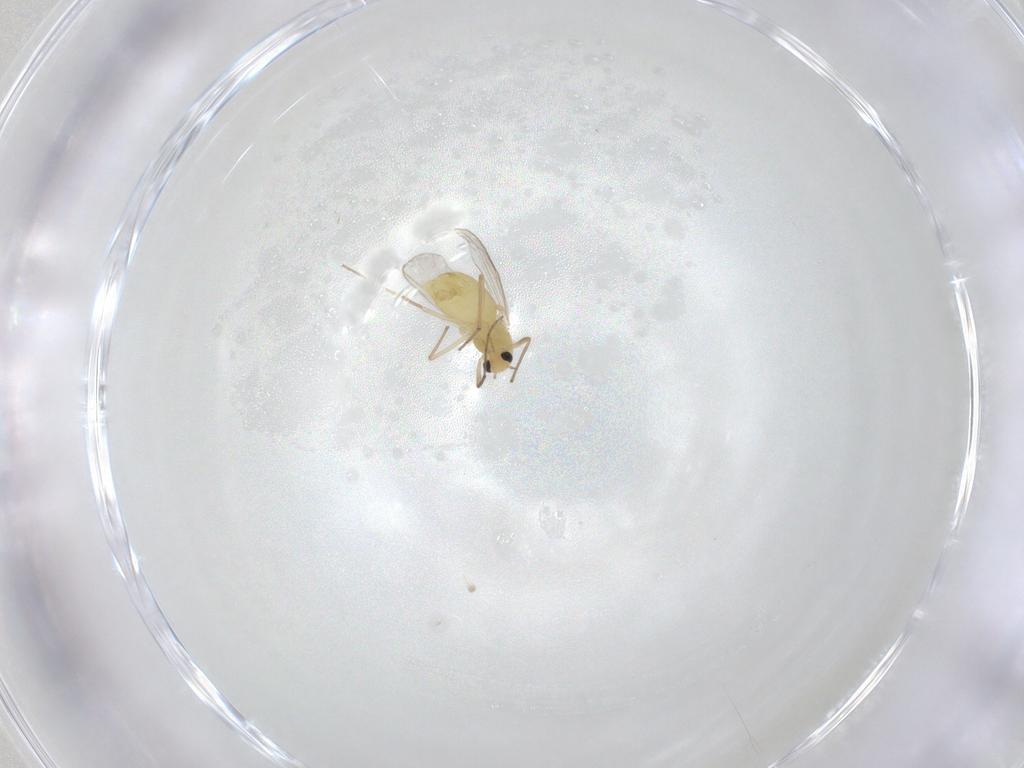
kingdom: Animalia
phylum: Arthropoda
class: Insecta
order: Diptera
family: Chironomidae
